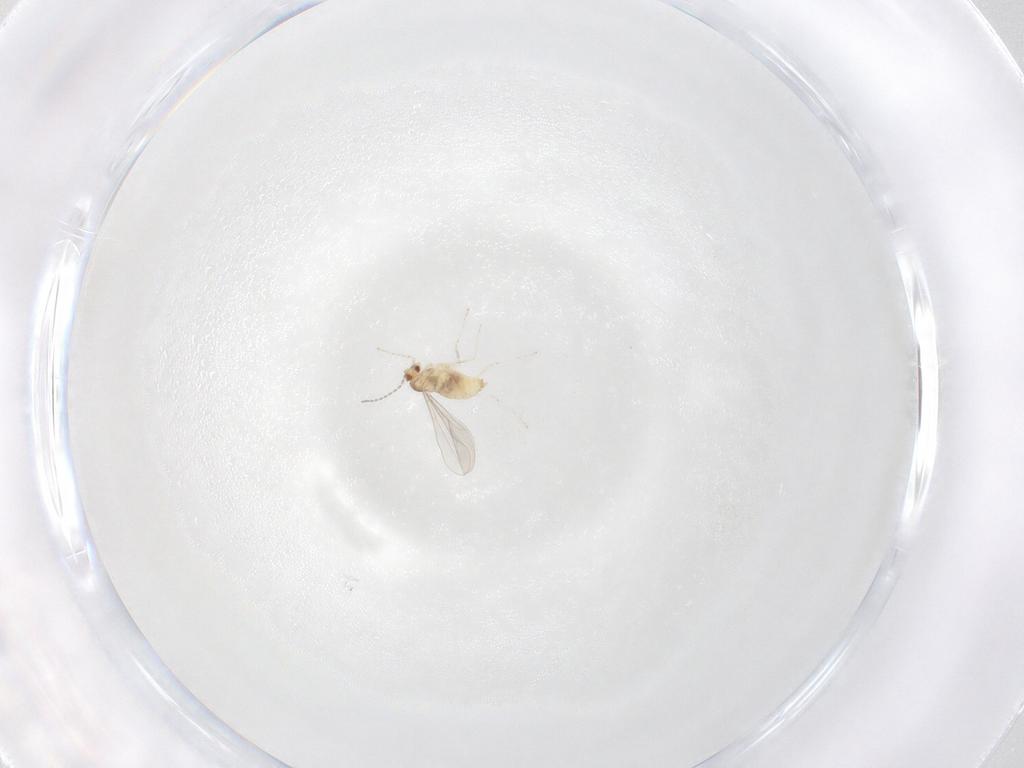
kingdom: Animalia
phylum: Arthropoda
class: Insecta
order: Diptera
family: Cecidomyiidae
